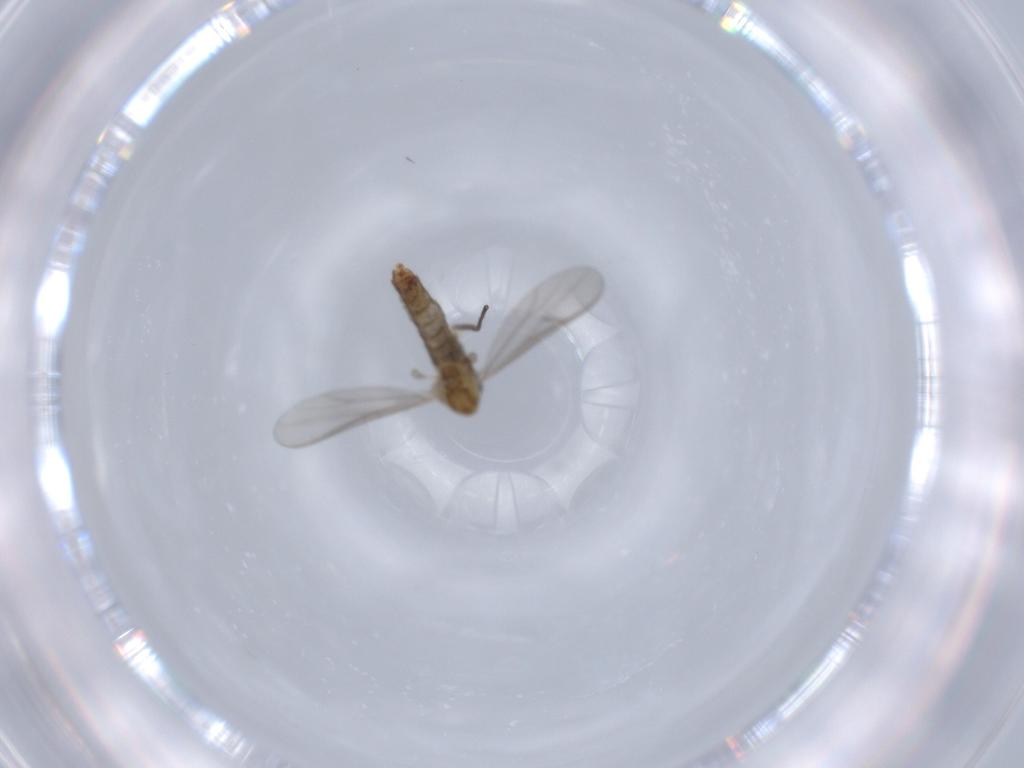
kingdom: Animalia
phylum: Arthropoda
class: Insecta
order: Diptera
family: Chironomidae
